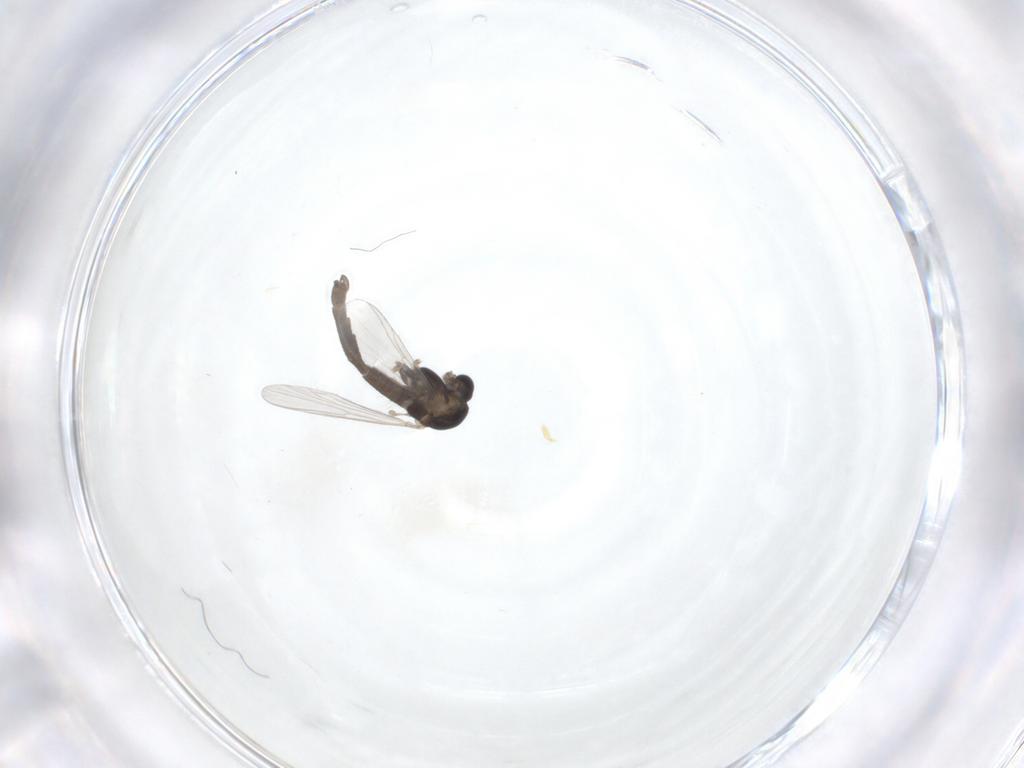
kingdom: Animalia
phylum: Arthropoda
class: Insecta
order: Diptera
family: Chironomidae
